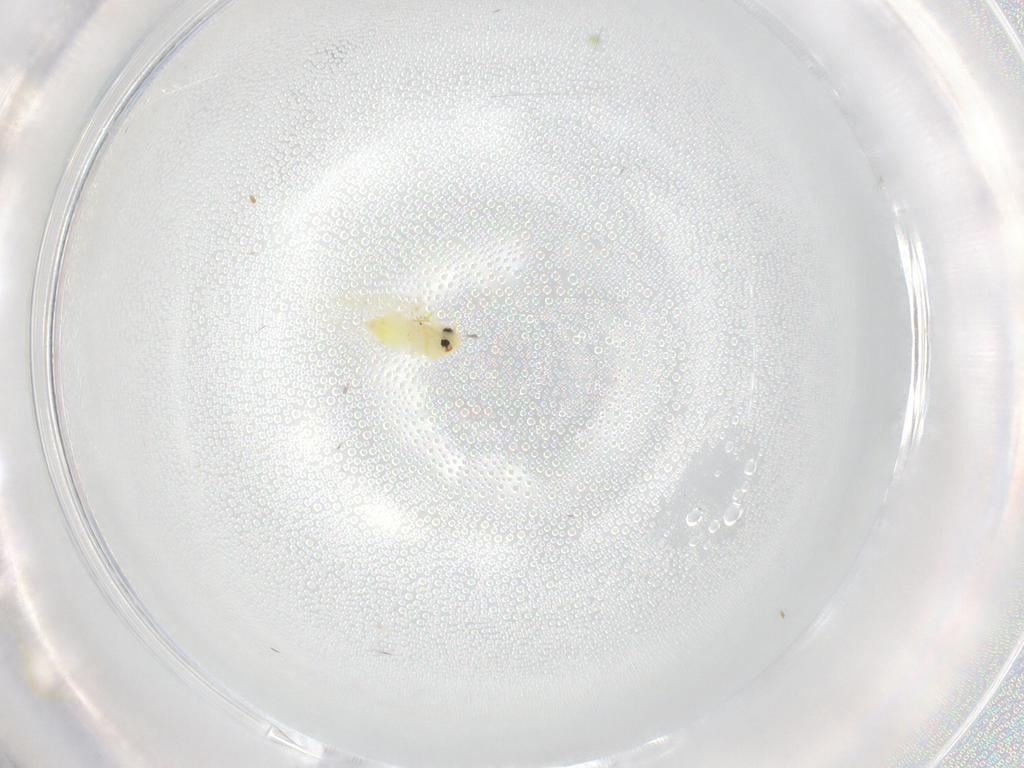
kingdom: Animalia
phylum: Arthropoda
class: Insecta
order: Hemiptera
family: Aleyrodidae
